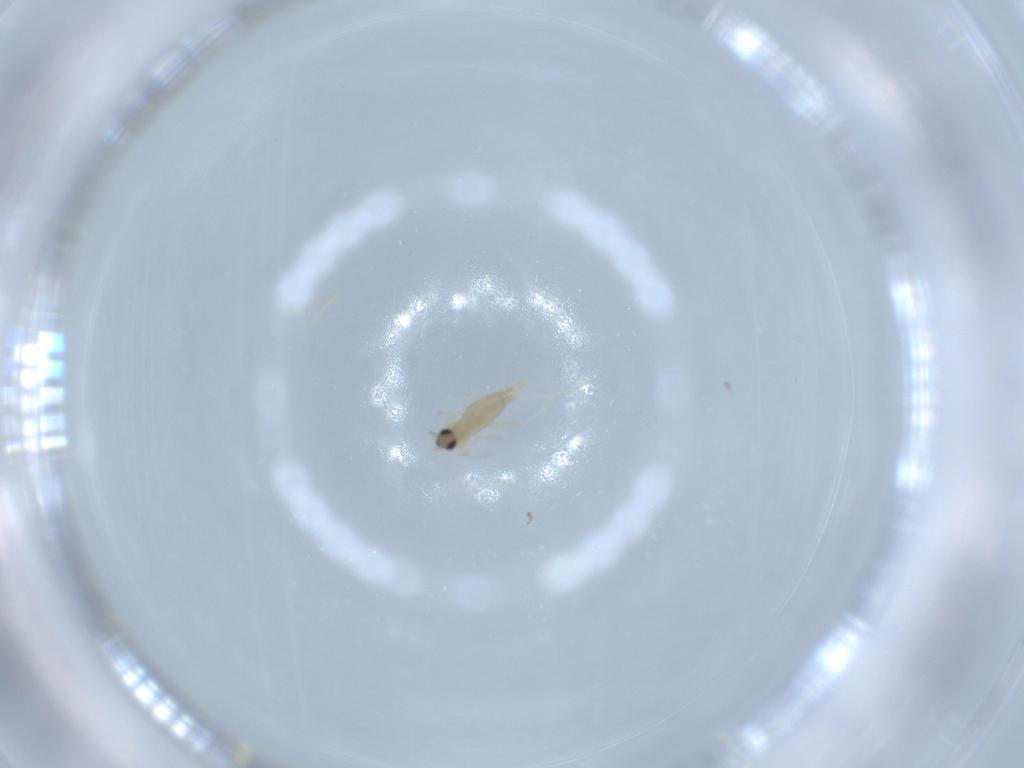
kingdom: Animalia
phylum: Arthropoda
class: Insecta
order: Diptera
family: Cecidomyiidae
